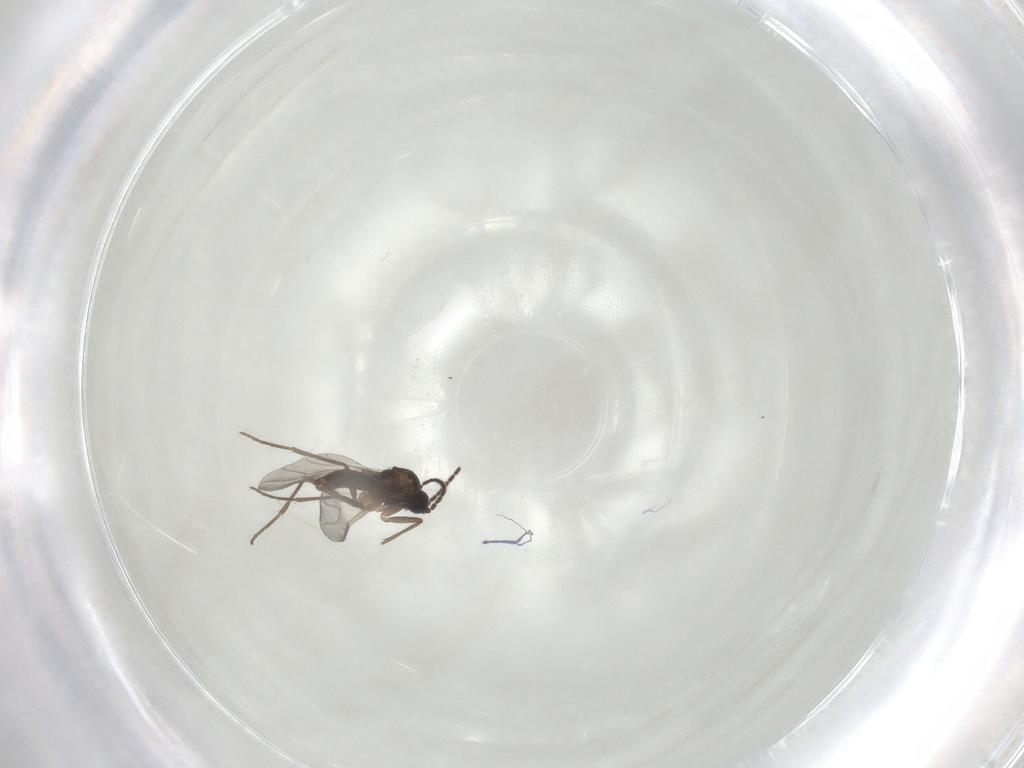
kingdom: Animalia
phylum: Arthropoda
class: Insecta
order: Diptera
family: Sciaridae
